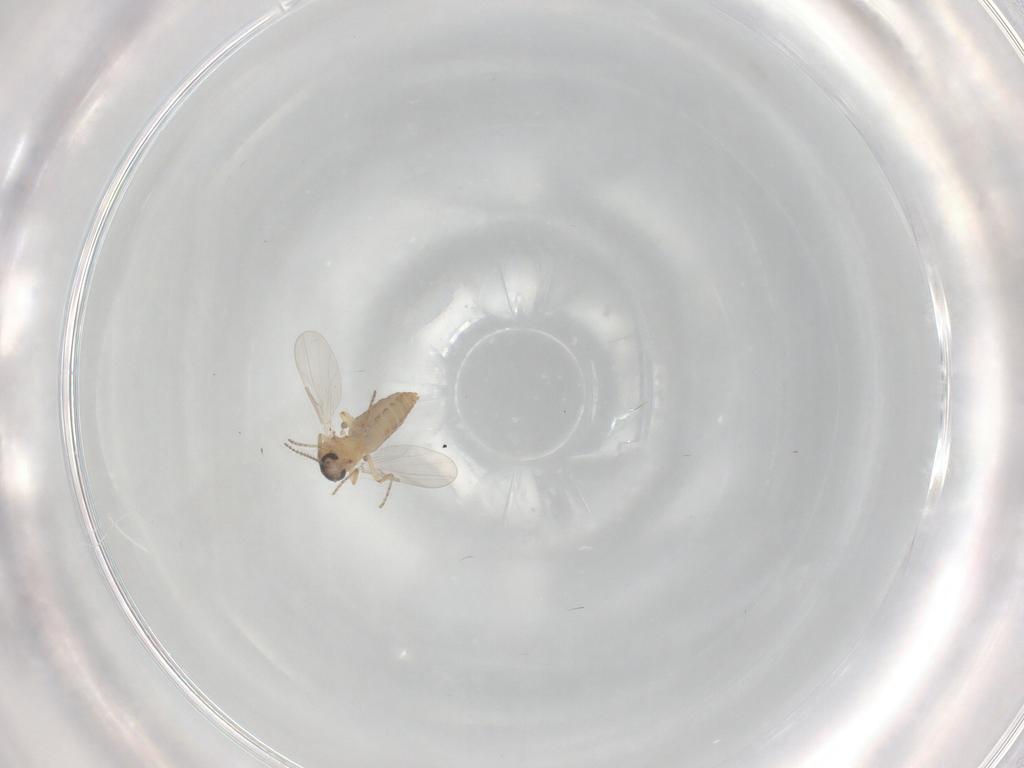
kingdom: Animalia
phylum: Arthropoda
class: Insecta
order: Diptera
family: Ceratopogonidae
